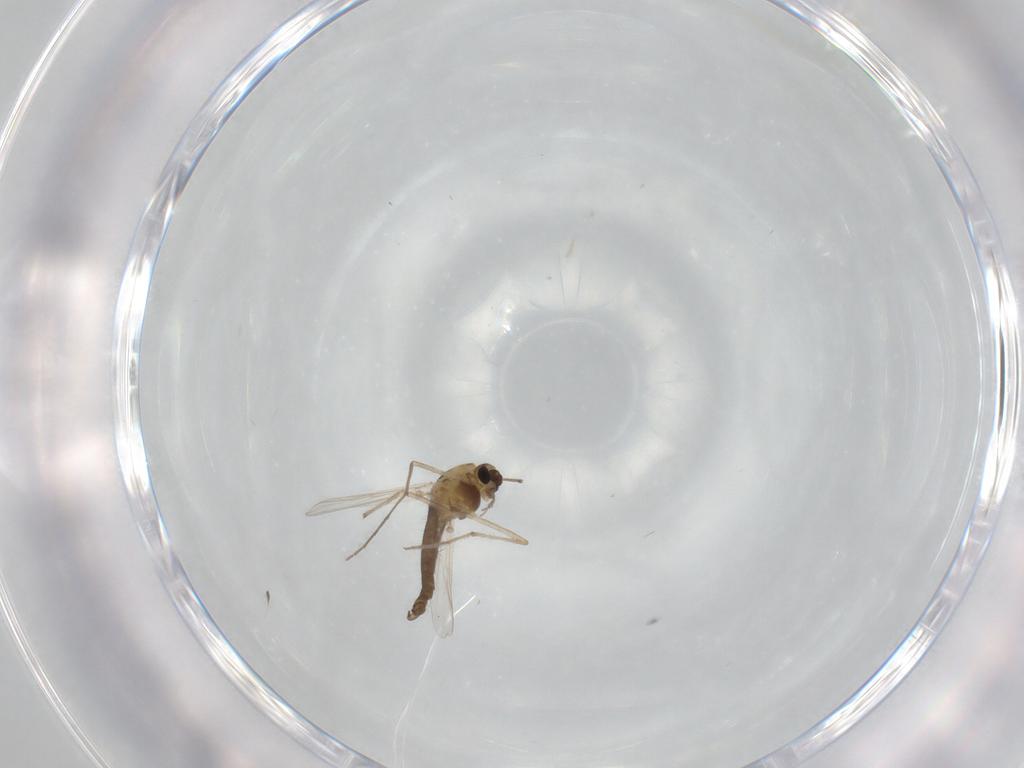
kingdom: Animalia
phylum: Arthropoda
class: Insecta
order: Diptera
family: Chironomidae
